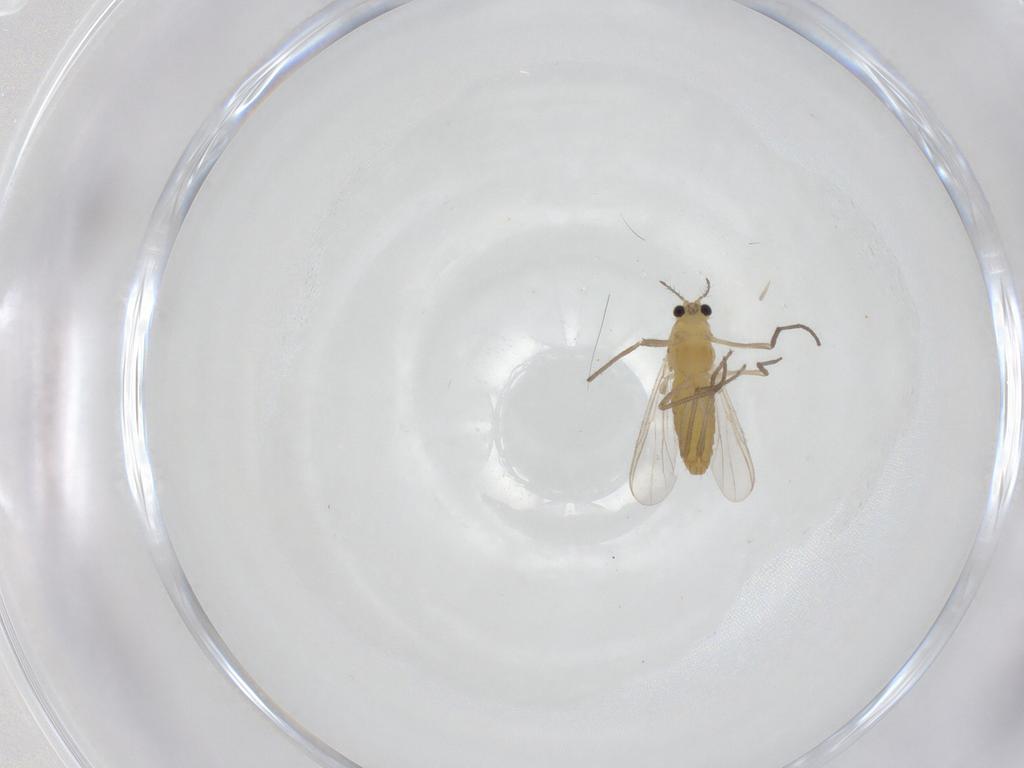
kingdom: Animalia
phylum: Arthropoda
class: Insecta
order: Diptera
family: Chironomidae
